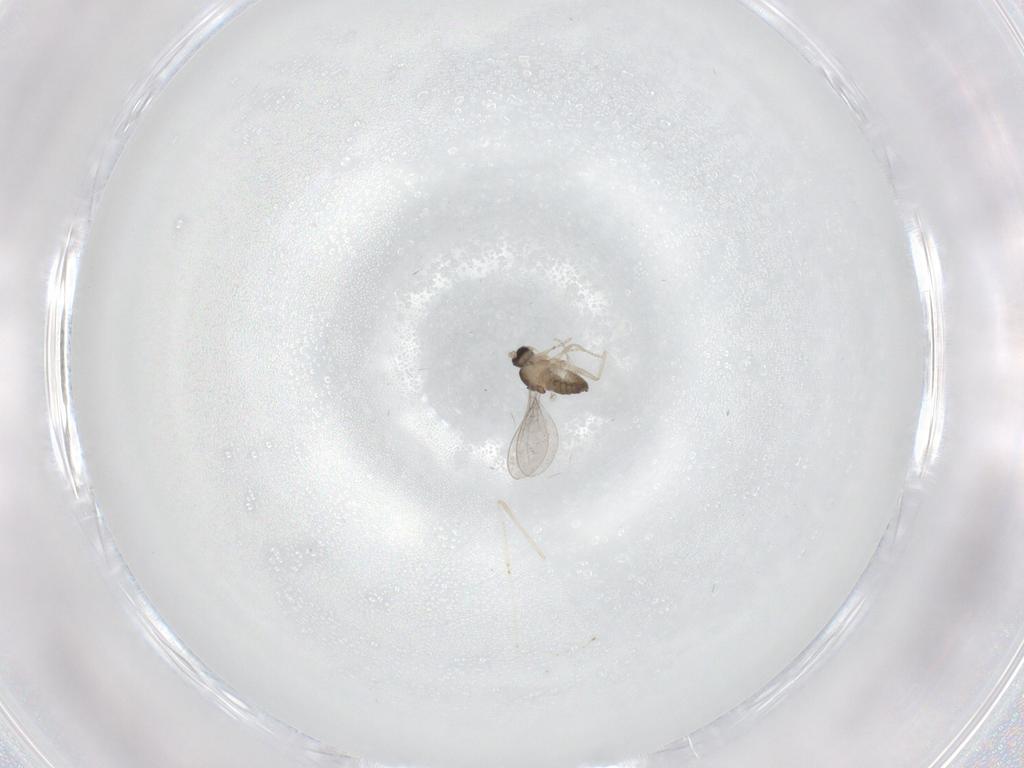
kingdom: Animalia
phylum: Arthropoda
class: Insecta
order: Diptera
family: Cecidomyiidae
